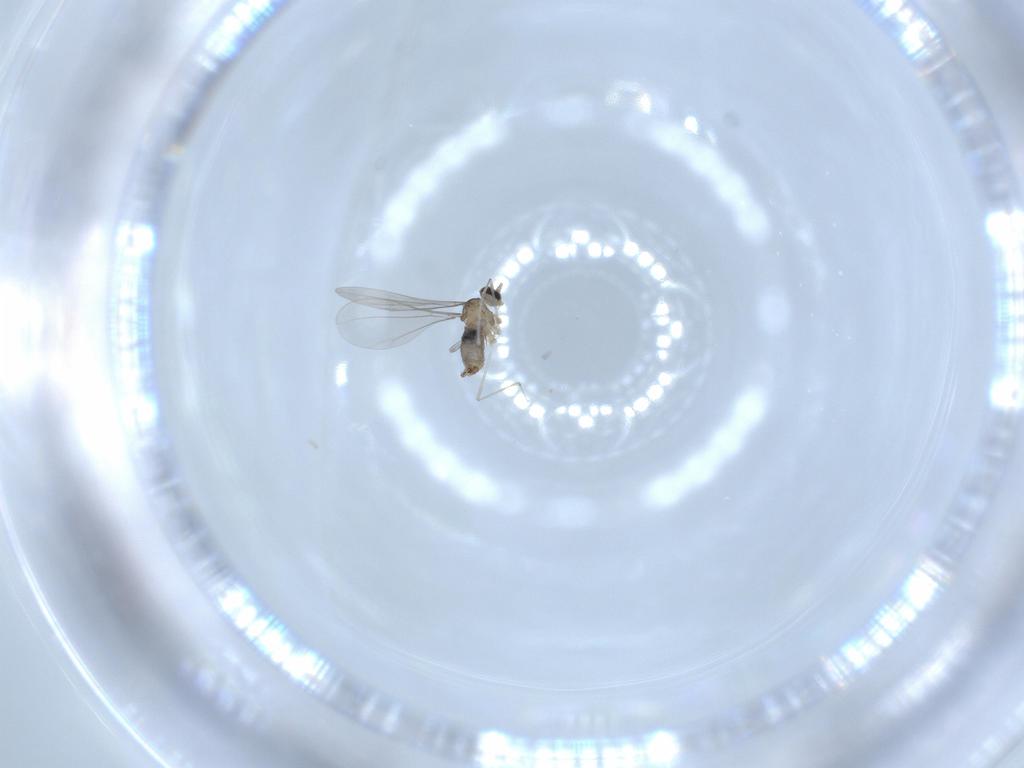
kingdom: Animalia
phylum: Arthropoda
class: Insecta
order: Diptera
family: Cecidomyiidae
